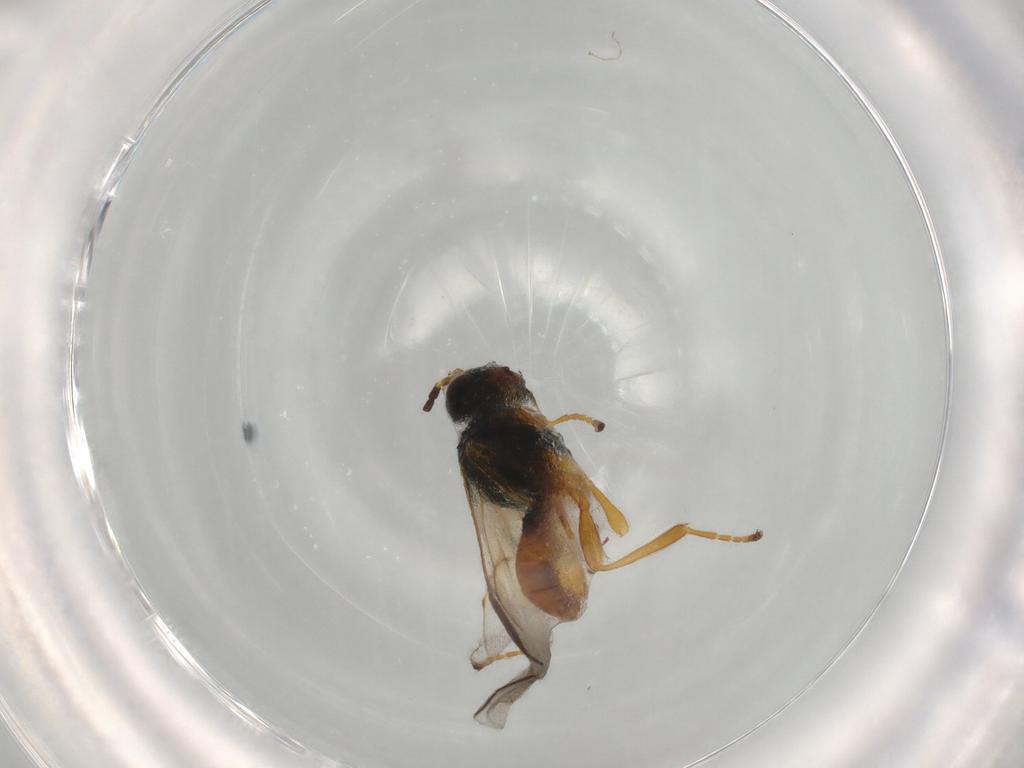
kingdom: Animalia
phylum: Arthropoda
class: Insecta
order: Hymenoptera
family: Braconidae
